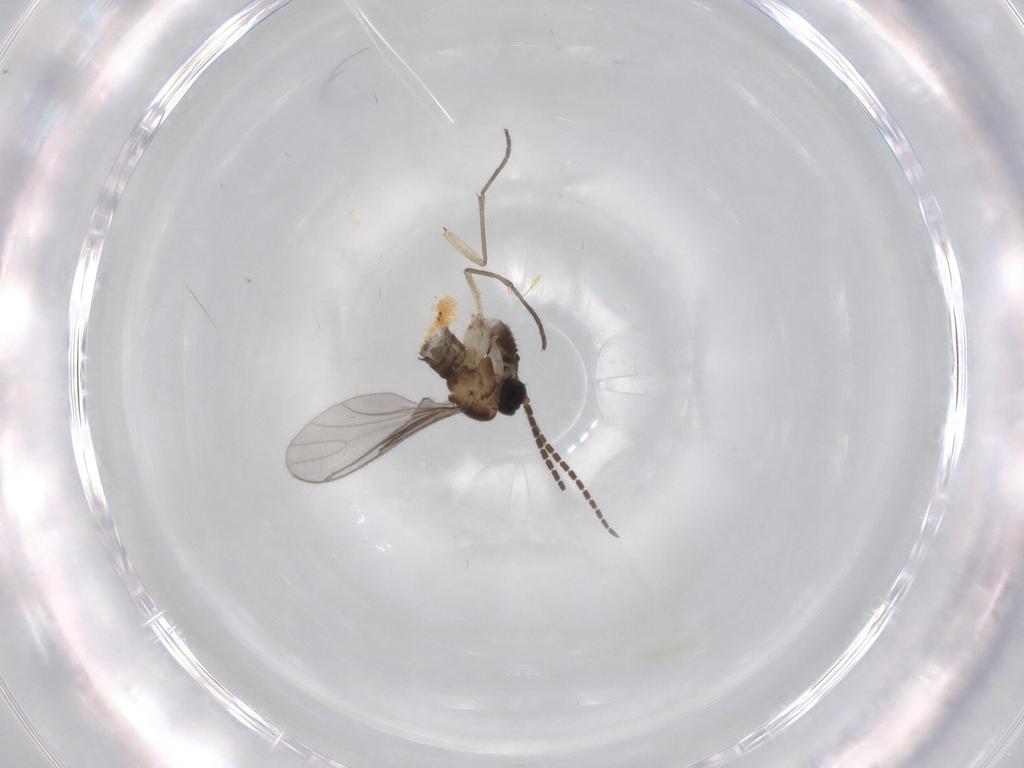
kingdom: Animalia
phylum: Arthropoda
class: Insecta
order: Diptera
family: Sciaridae
